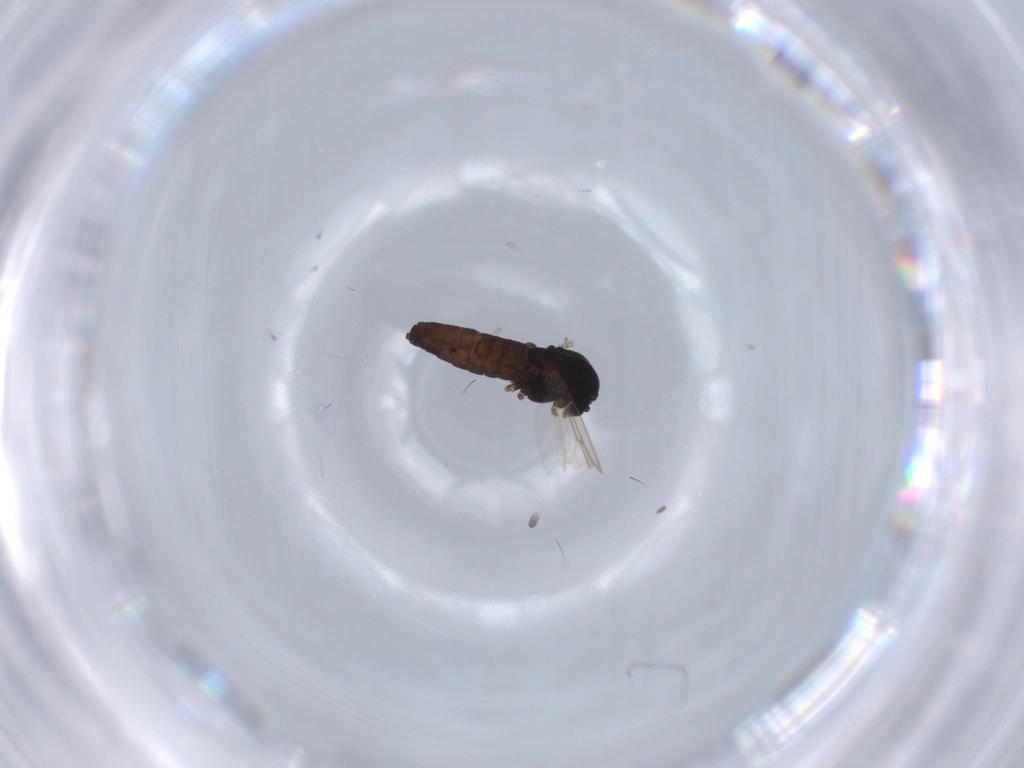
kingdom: Animalia
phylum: Arthropoda
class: Insecta
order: Diptera
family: Chironomidae
